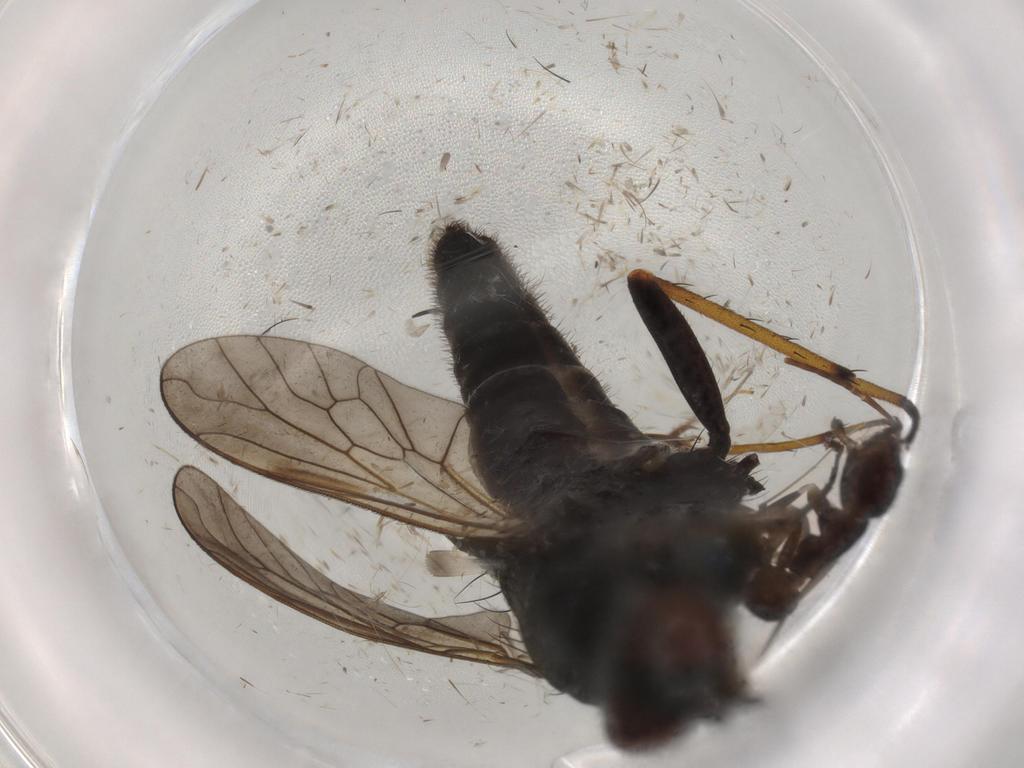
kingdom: Animalia
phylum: Arthropoda
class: Insecta
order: Diptera
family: Therevidae
